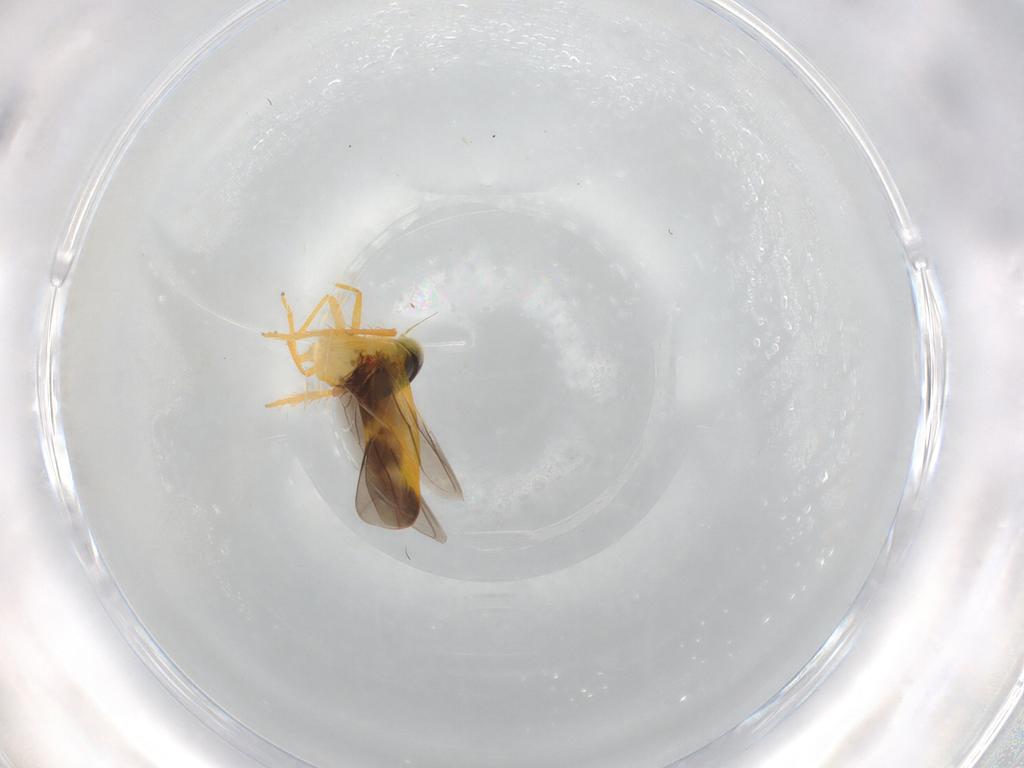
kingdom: Animalia
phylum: Arthropoda
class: Insecta
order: Hemiptera
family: Cicadellidae
